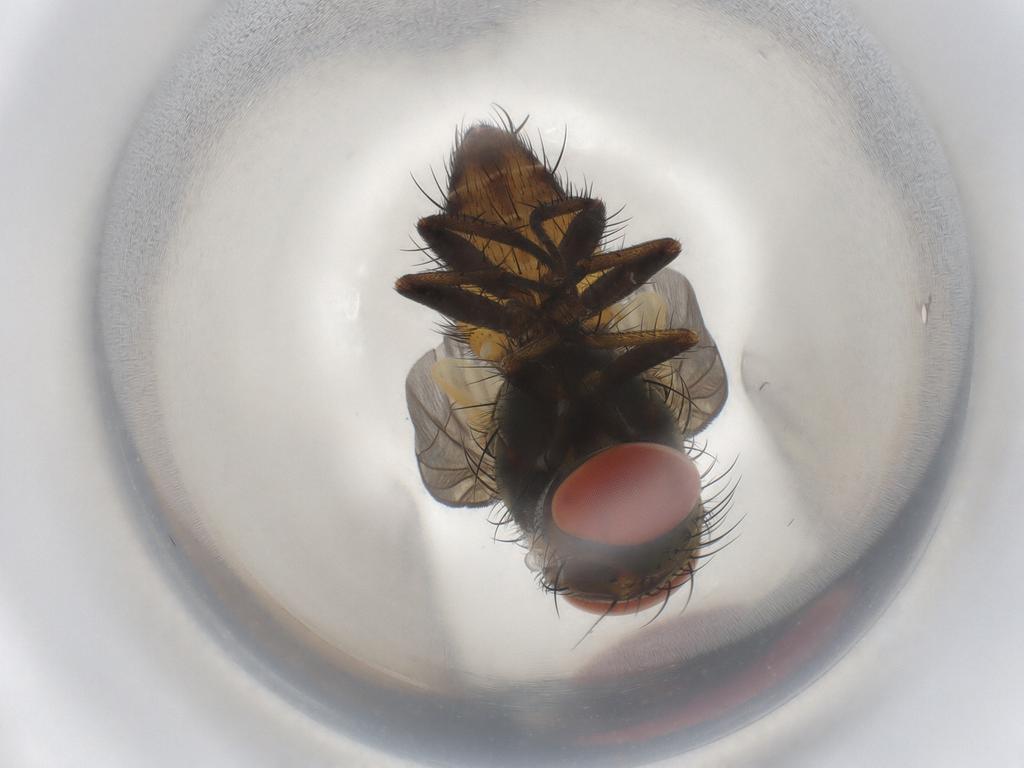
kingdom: Animalia
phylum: Arthropoda
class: Insecta
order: Diptera
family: Sarcophagidae
